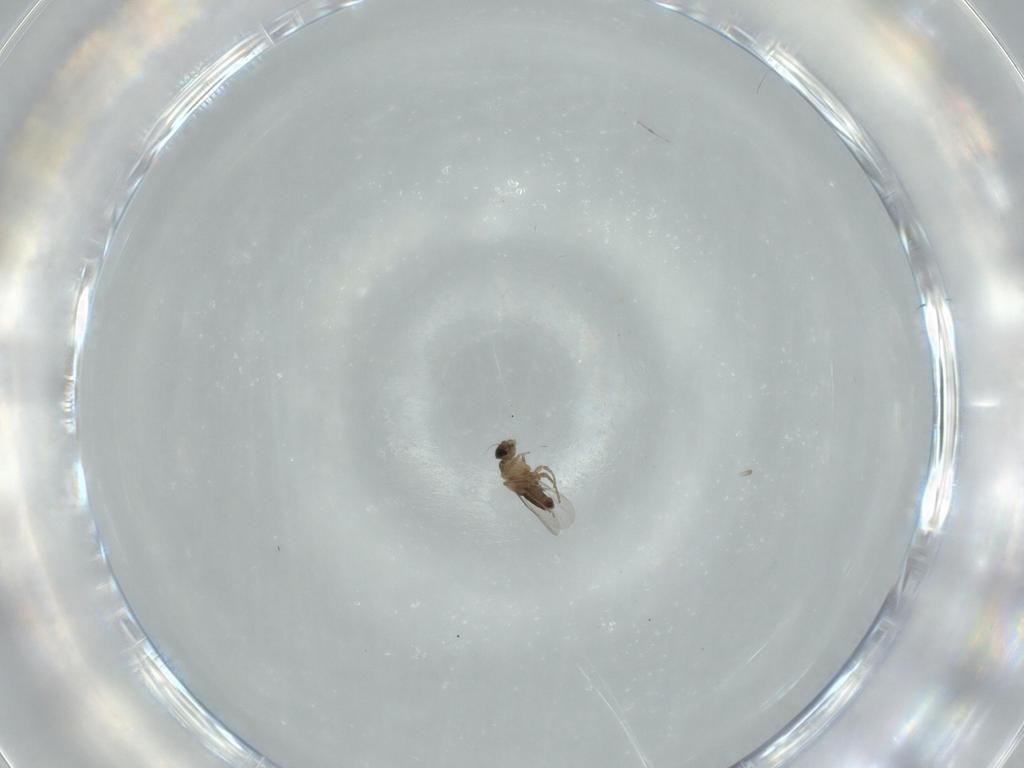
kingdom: Animalia
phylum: Arthropoda
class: Insecta
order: Diptera
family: Phoridae
